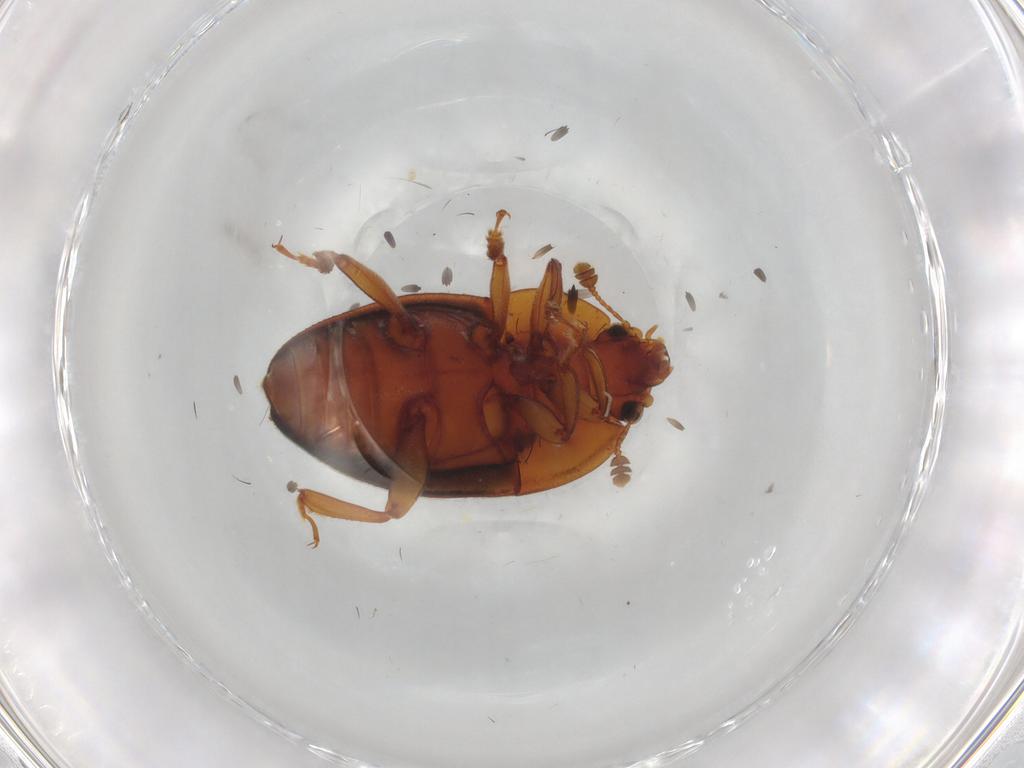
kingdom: Animalia
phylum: Arthropoda
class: Insecta
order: Coleoptera
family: Nitidulidae
